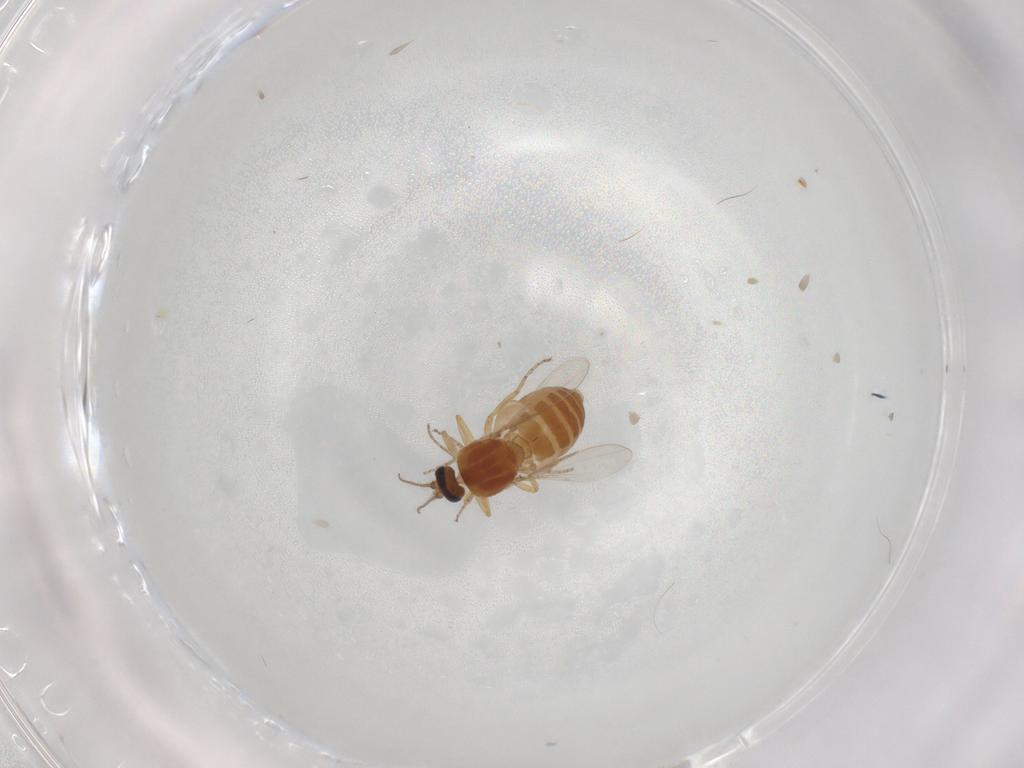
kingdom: Animalia
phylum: Arthropoda
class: Insecta
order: Diptera
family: Ceratopogonidae
